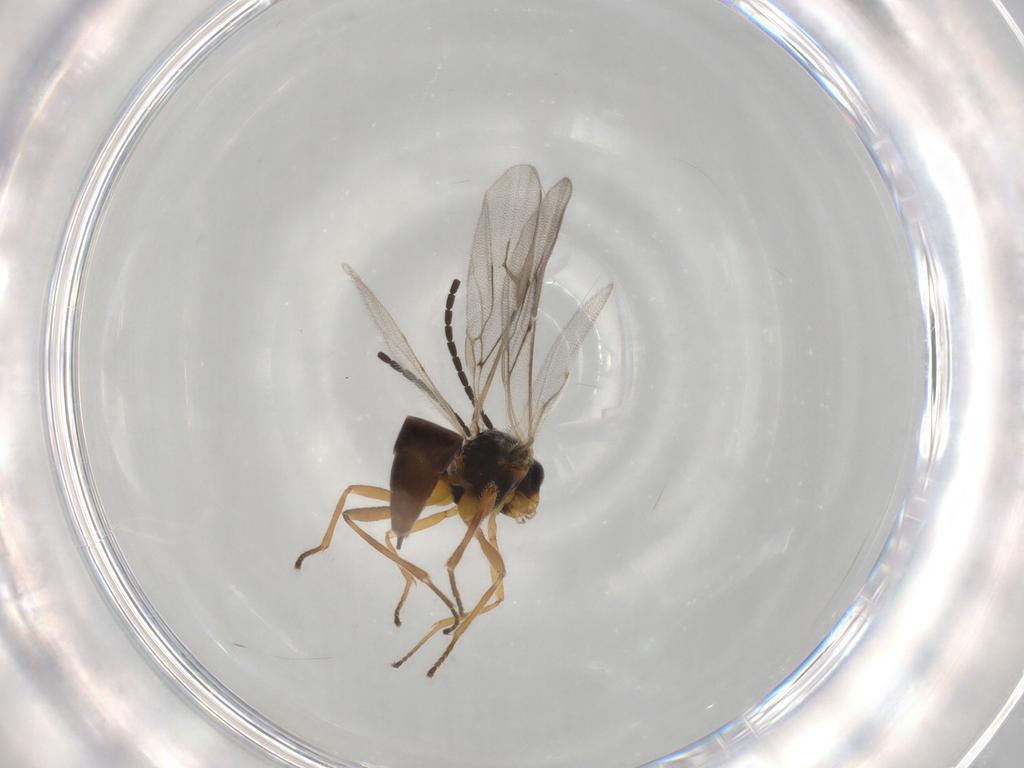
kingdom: Animalia
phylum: Arthropoda
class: Insecta
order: Hymenoptera
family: Braconidae
